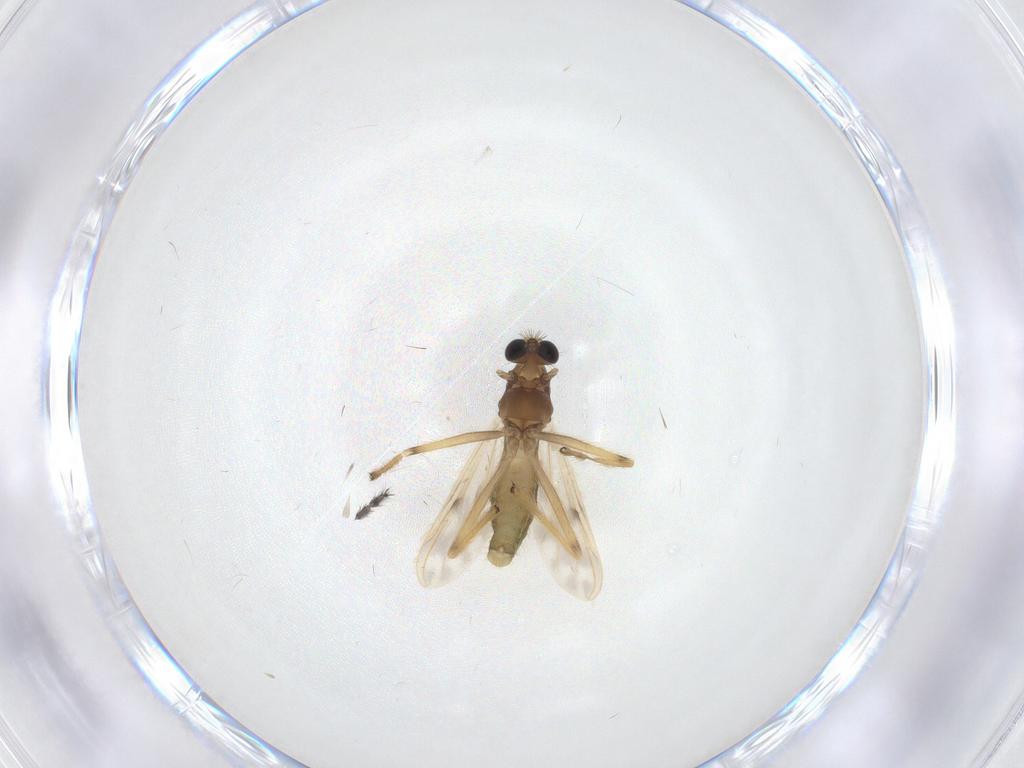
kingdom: Animalia
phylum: Arthropoda
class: Insecta
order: Diptera
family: Chironomidae
